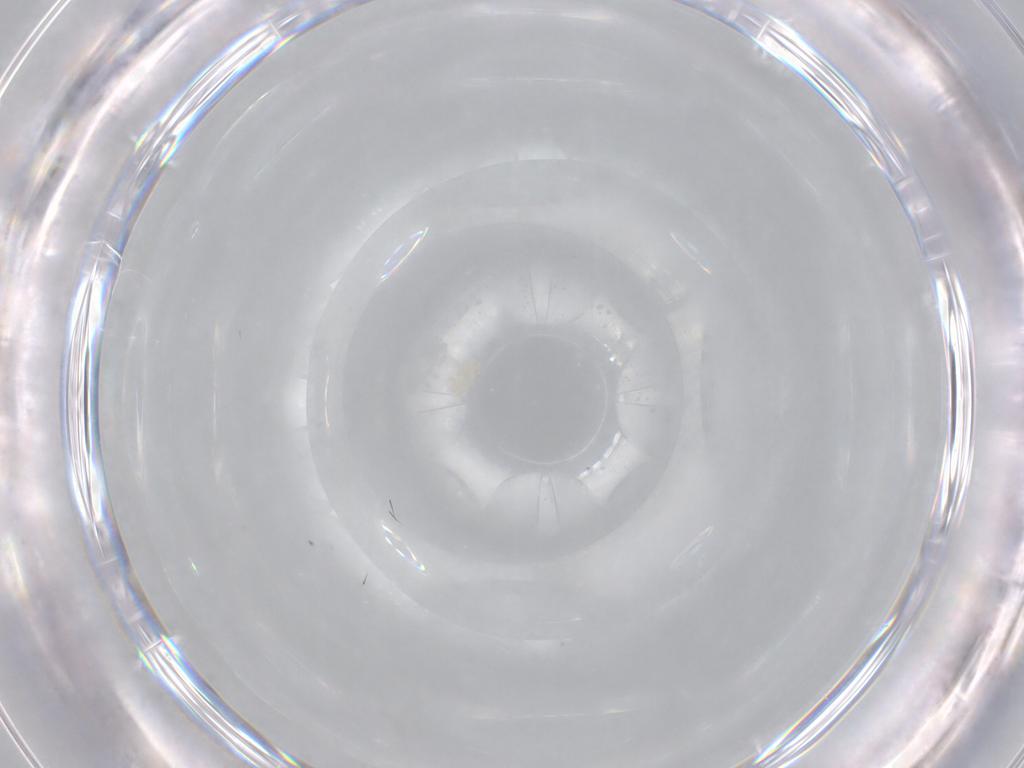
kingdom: Animalia
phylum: Arthropoda
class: Insecta
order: Diptera
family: Muscidae
